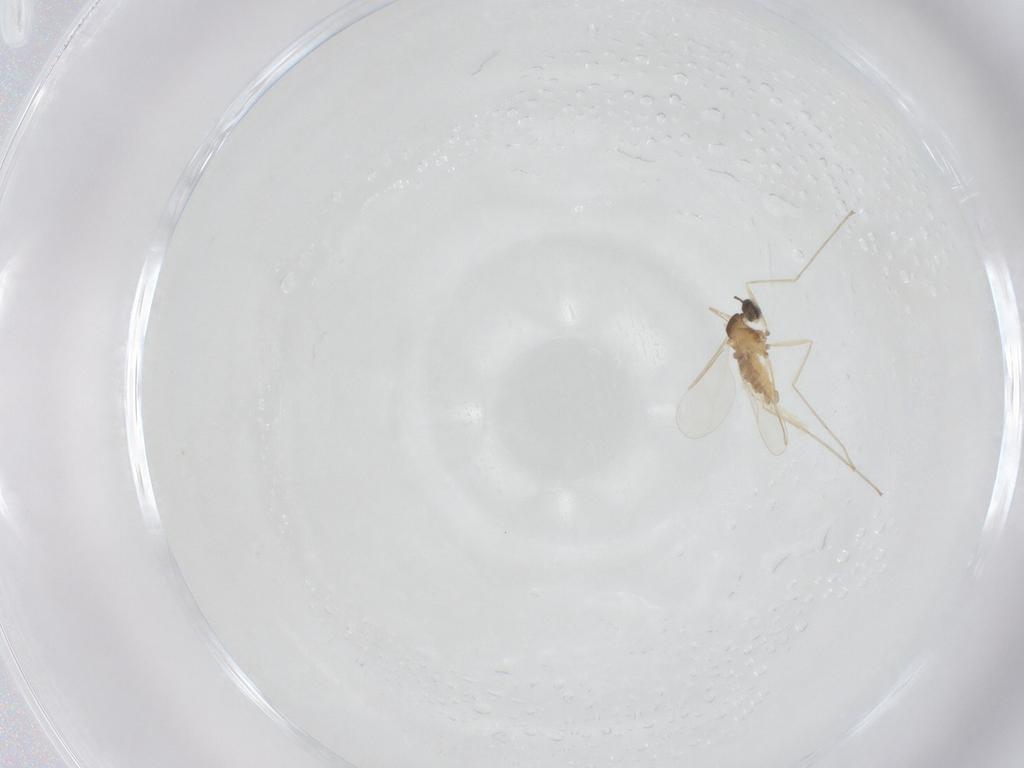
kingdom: Animalia
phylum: Arthropoda
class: Insecta
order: Diptera
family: Cecidomyiidae
